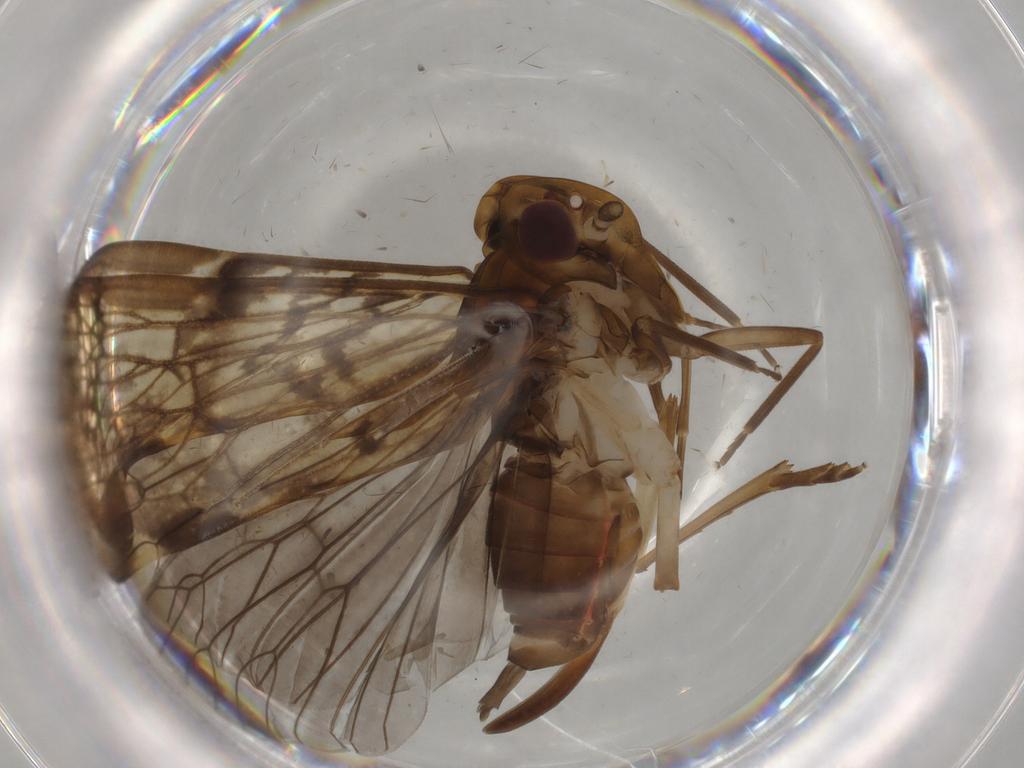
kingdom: Animalia
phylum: Arthropoda
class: Insecta
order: Hemiptera
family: Cixiidae
